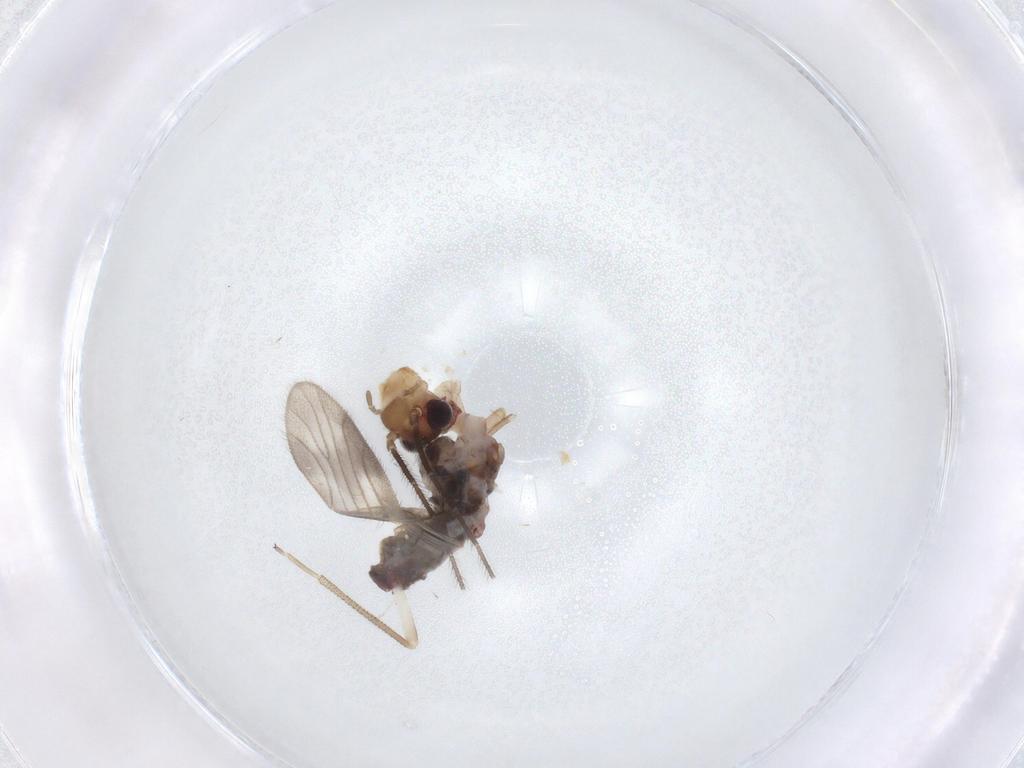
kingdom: Animalia
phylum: Arthropoda
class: Insecta
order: Psocodea
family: Amphipsocidae
